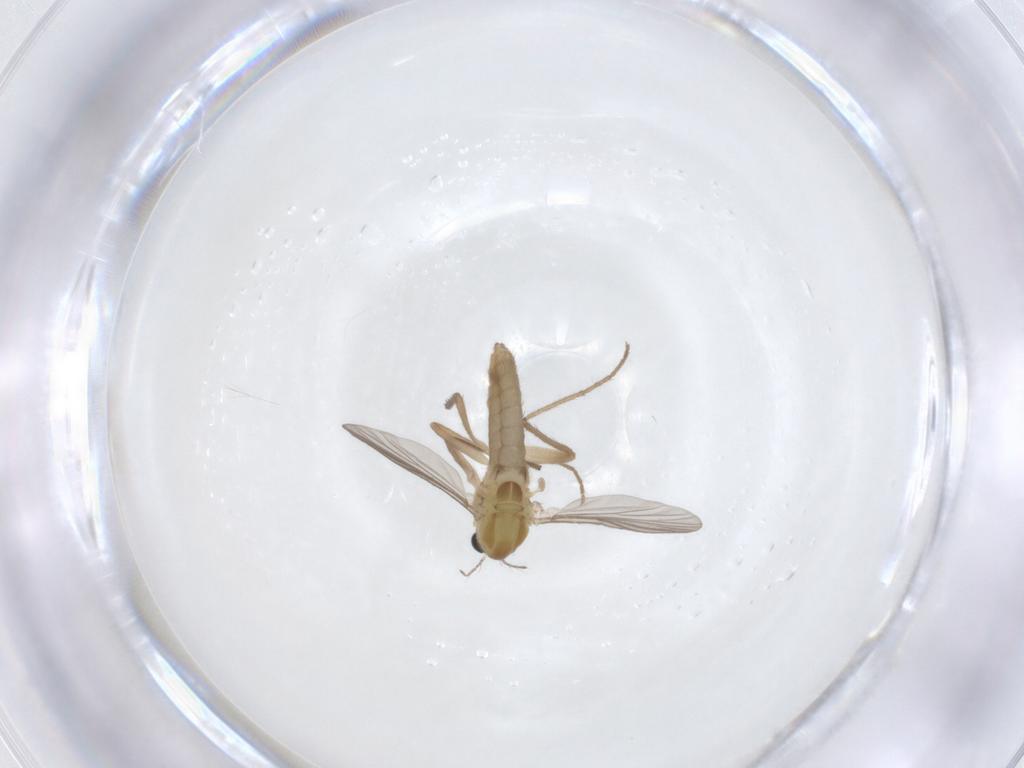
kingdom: Animalia
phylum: Arthropoda
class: Insecta
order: Diptera
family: Chironomidae
